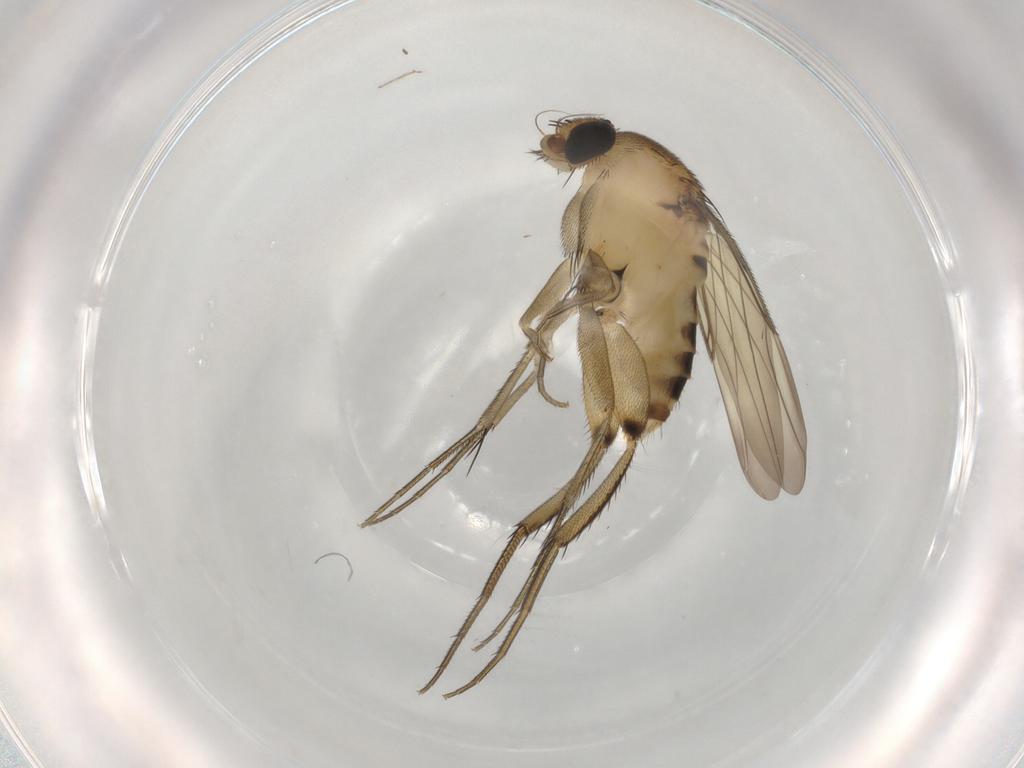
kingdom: Animalia
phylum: Arthropoda
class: Insecta
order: Diptera
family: Phoridae
